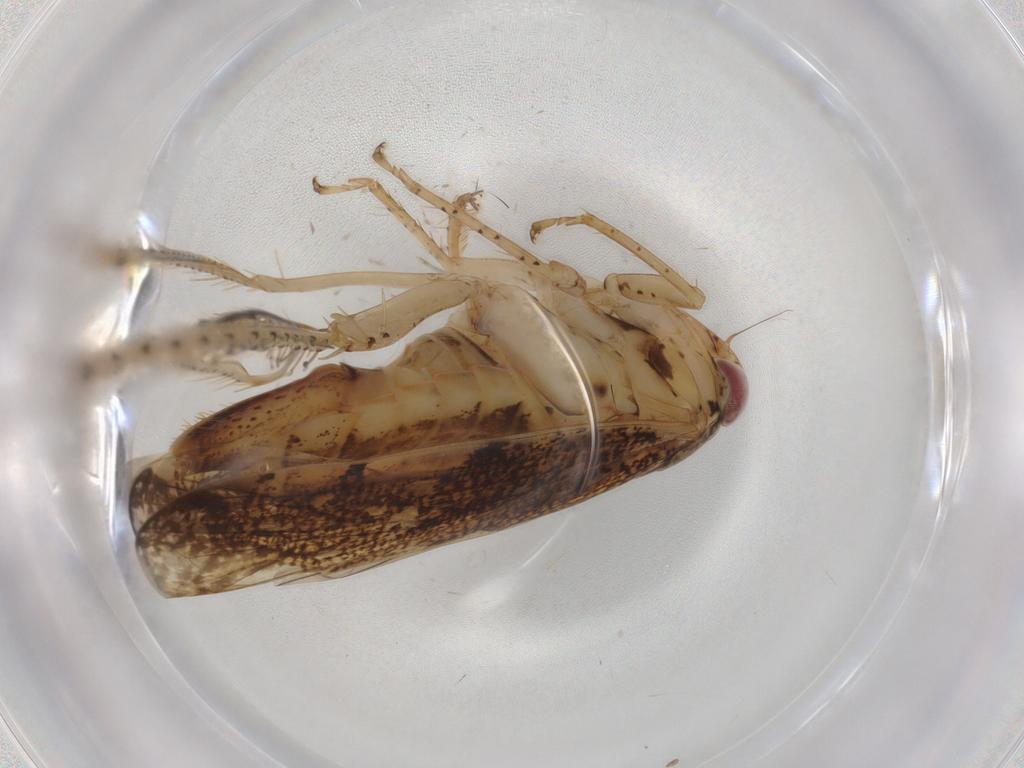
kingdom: Animalia
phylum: Arthropoda
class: Insecta
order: Hemiptera
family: Cicadellidae
